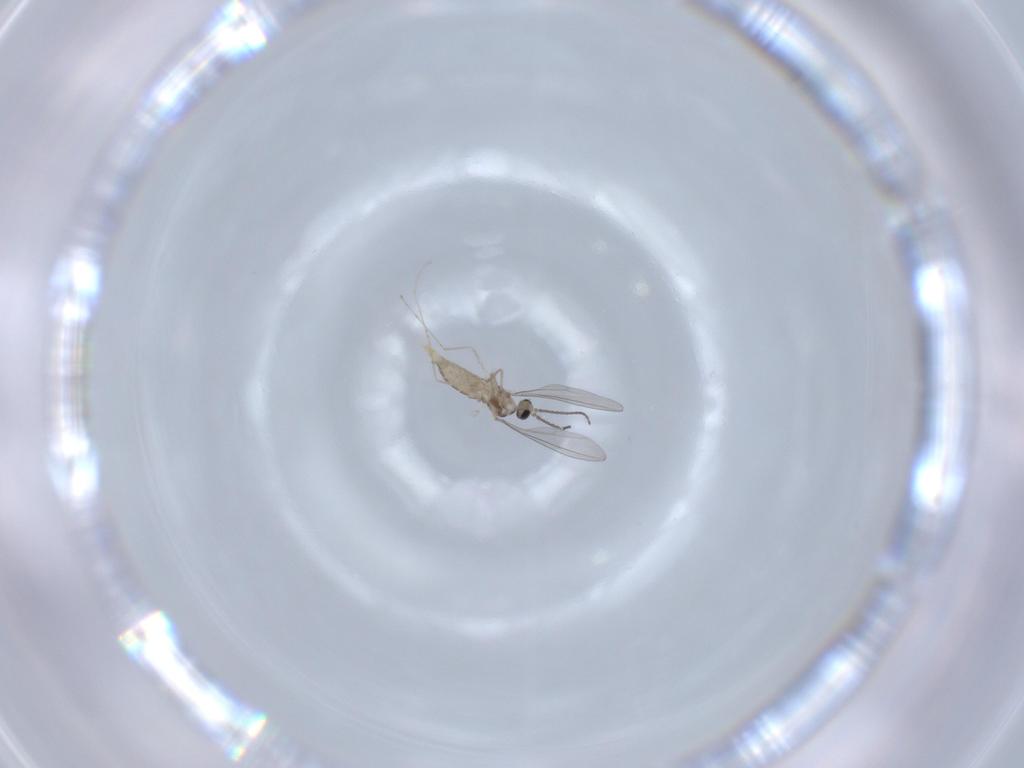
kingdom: Animalia
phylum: Arthropoda
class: Insecta
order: Diptera
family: Cecidomyiidae
